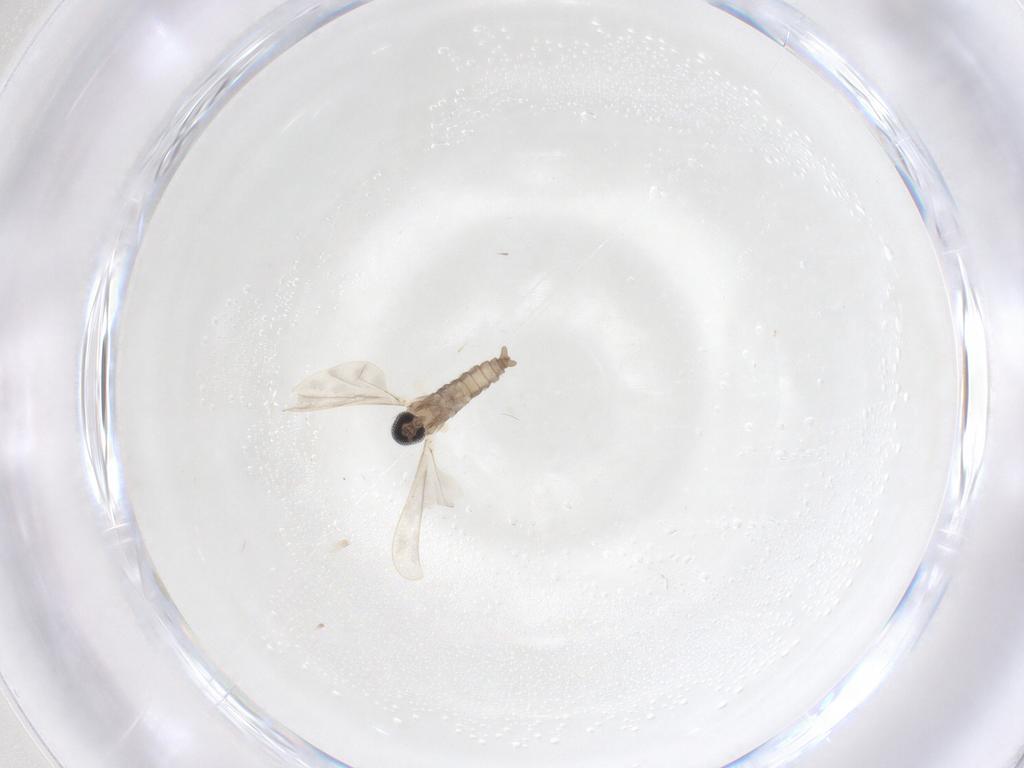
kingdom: Animalia
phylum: Arthropoda
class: Insecta
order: Diptera
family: Cecidomyiidae
